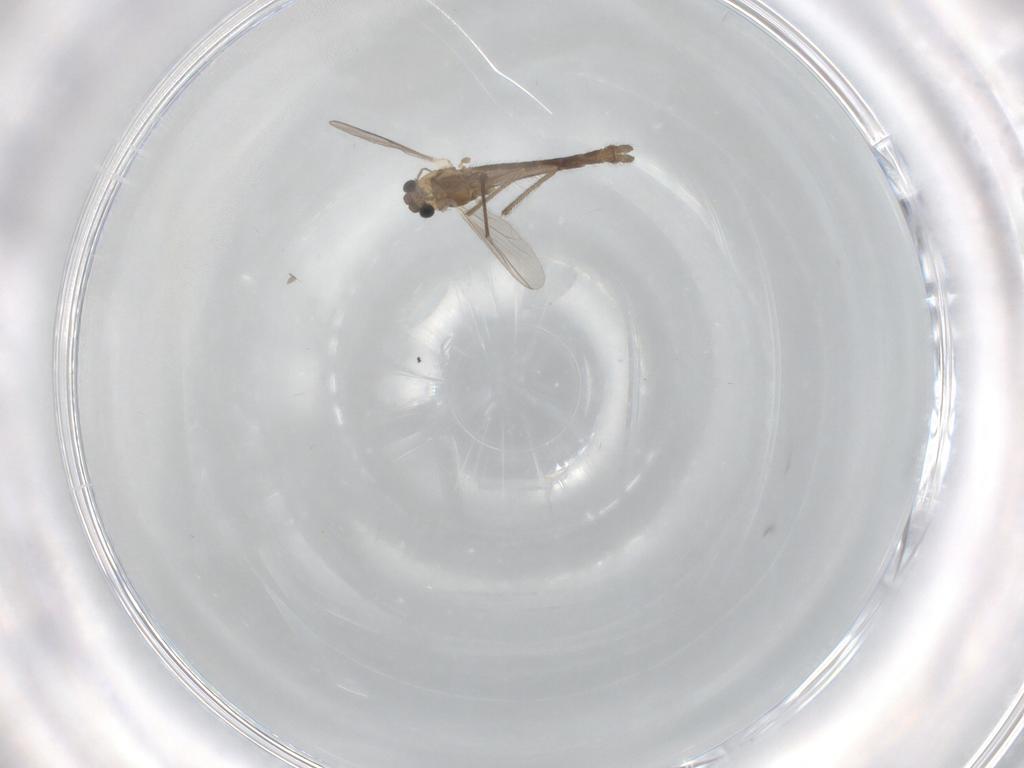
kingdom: Animalia
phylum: Arthropoda
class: Insecta
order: Diptera
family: Chironomidae
